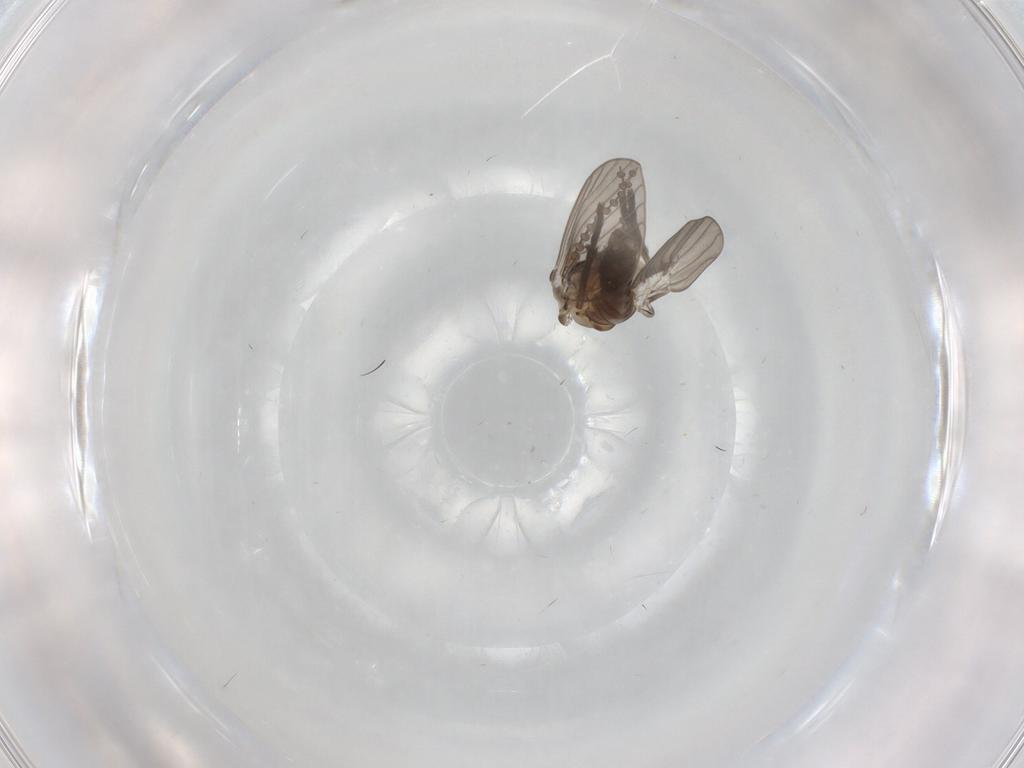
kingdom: Animalia
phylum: Arthropoda
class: Insecta
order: Diptera
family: Psychodidae
